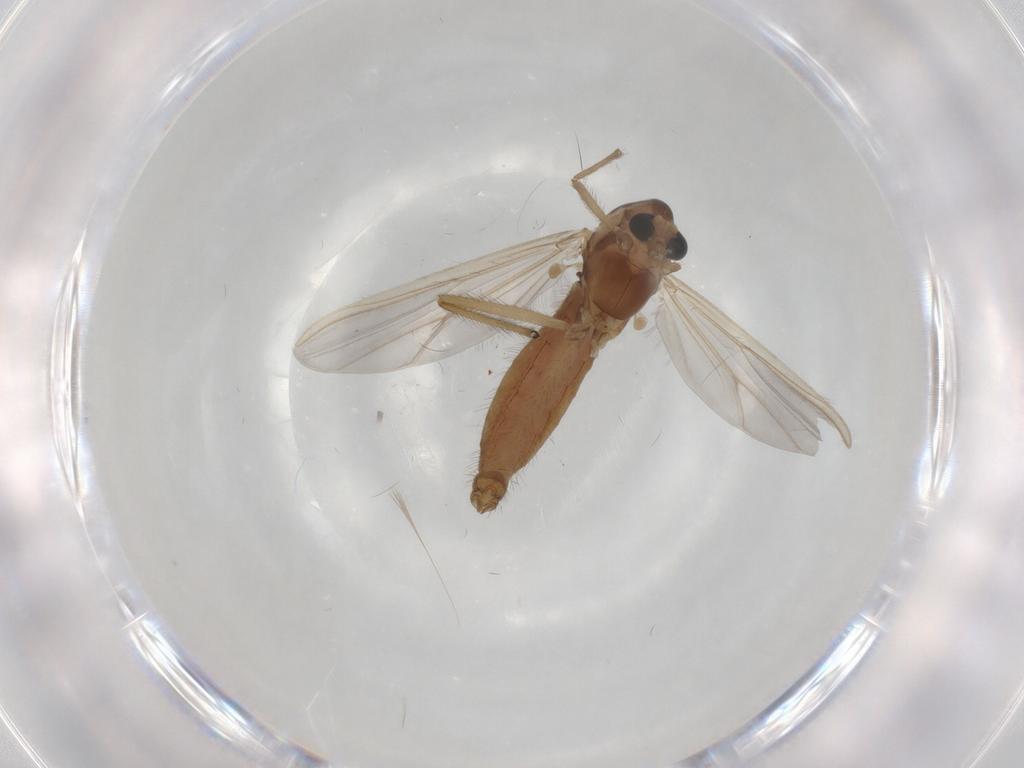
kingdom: Animalia
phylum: Arthropoda
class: Insecta
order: Diptera
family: Chironomidae
